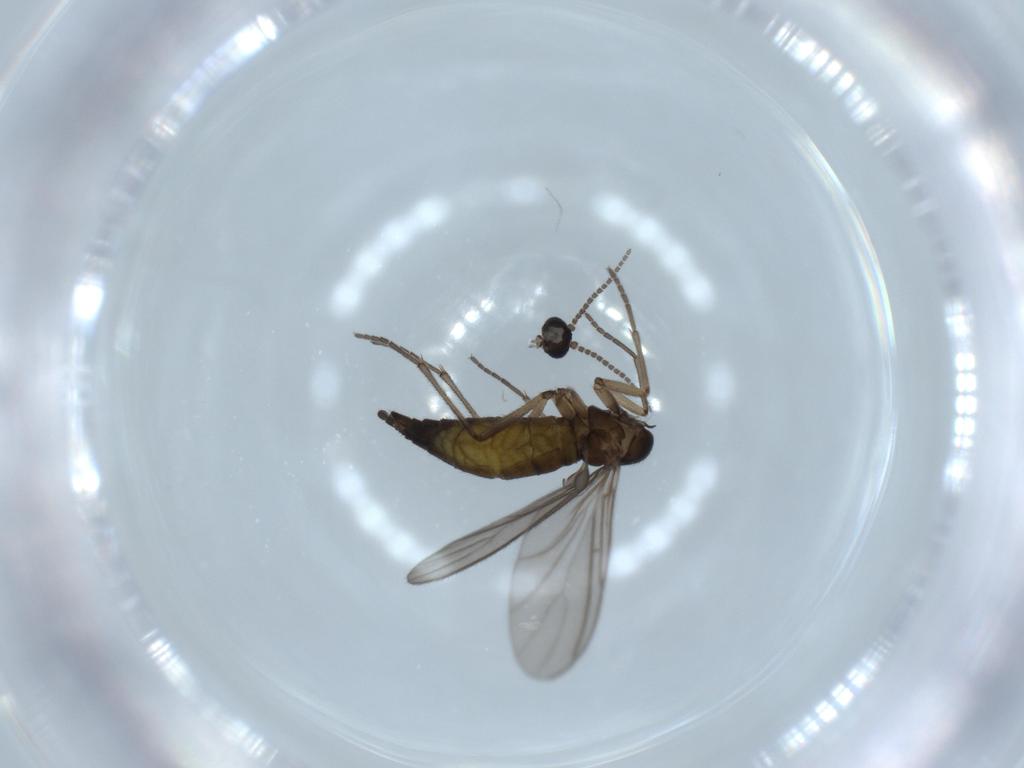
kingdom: Animalia
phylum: Arthropoda
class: Insecta
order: Diptera
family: Sciaridae
